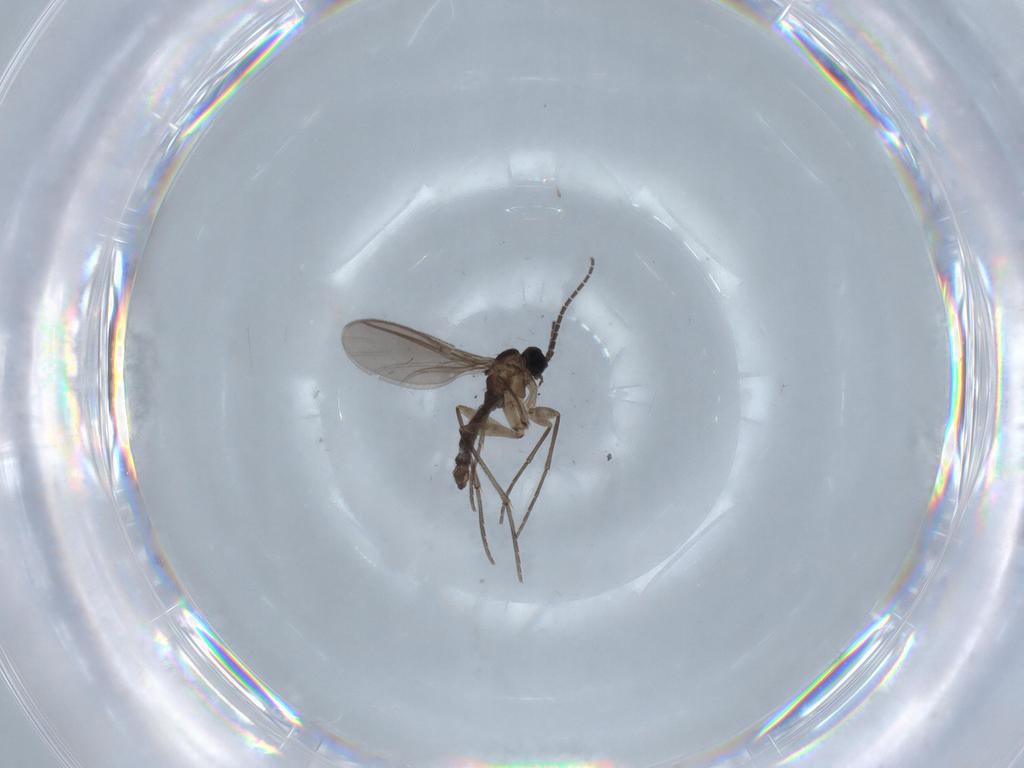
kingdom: Animalia
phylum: Arthropoda
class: Insecta
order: Diptera
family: Sciaridae
